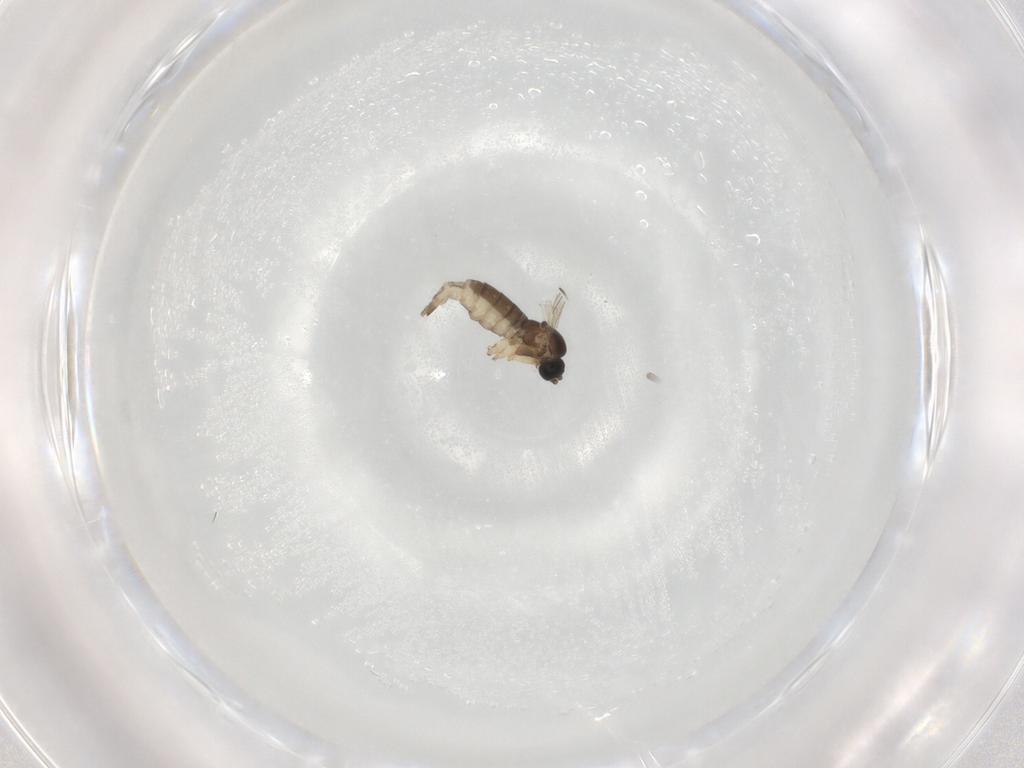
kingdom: Animalia
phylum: Arthropoda
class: Insecta
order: Diptera
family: Sciaridae
